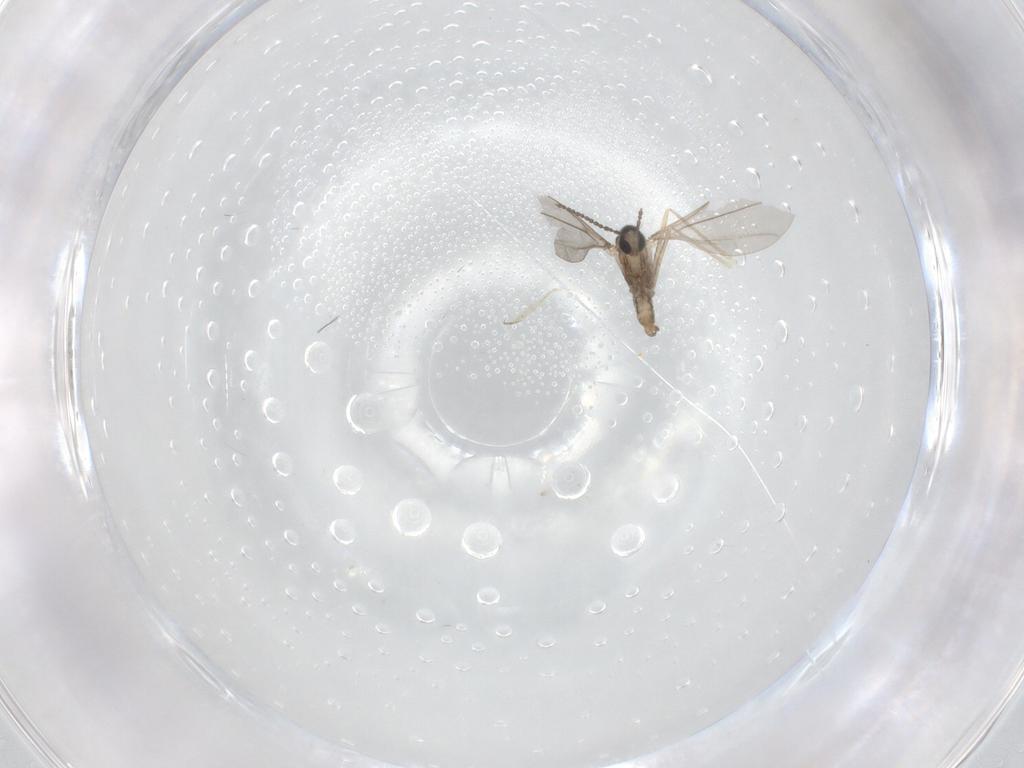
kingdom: Animalia
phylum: Arthropoda
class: Insecta
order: Diptera
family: Cecidomyiidae
